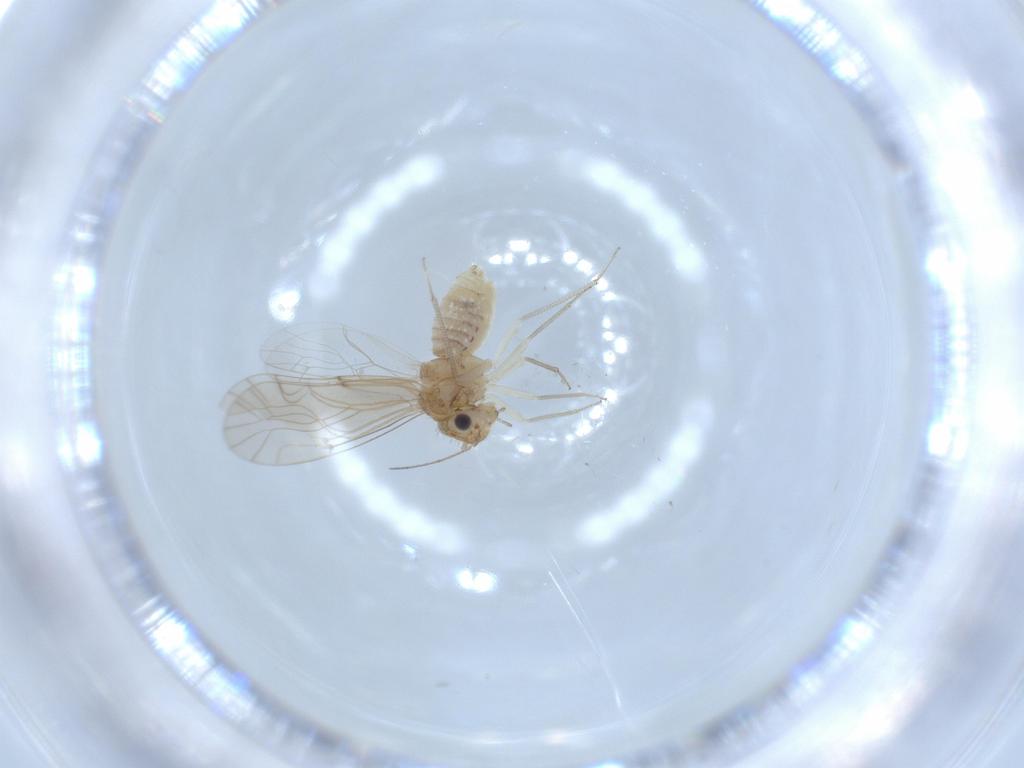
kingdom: Animalia
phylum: Arthropoda
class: Insecta
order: Psocodea
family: Lachesillidae
